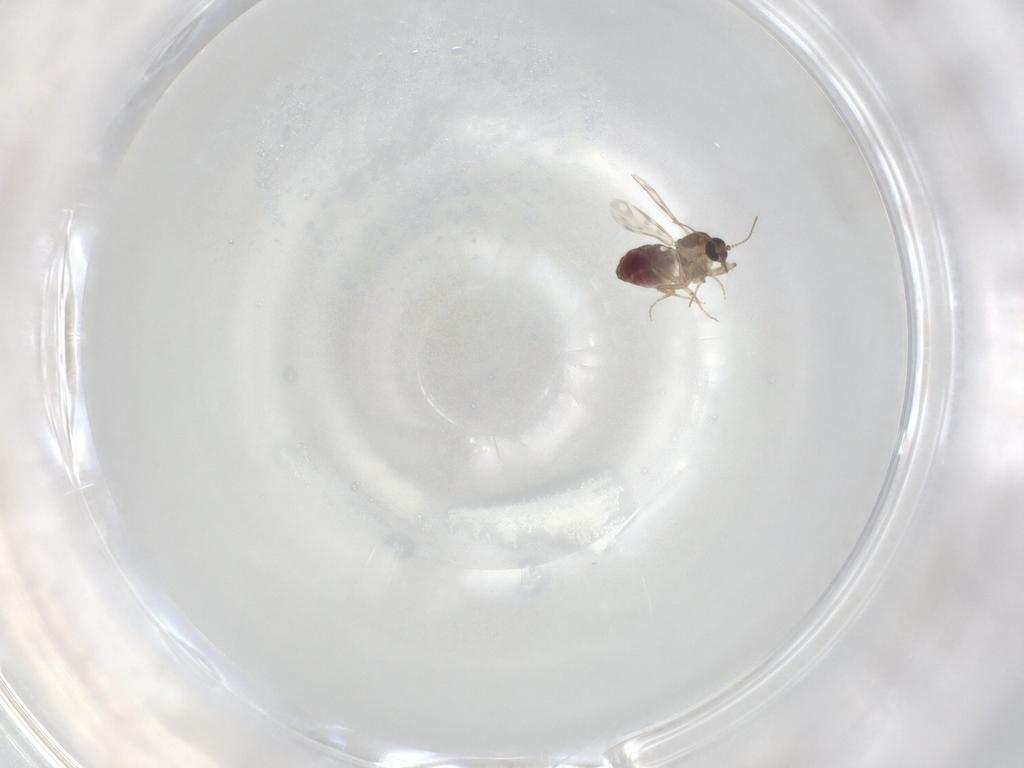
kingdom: Animalia
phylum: Arthropoda
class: Insecta
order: Diptera
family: Ceratopogonidae
